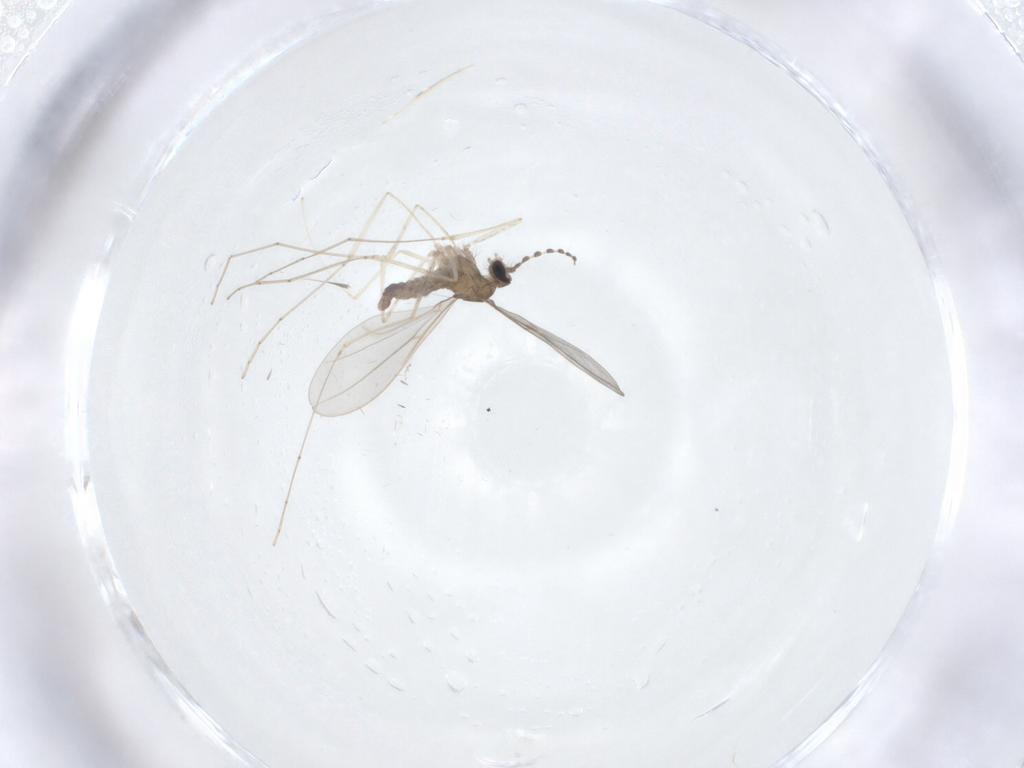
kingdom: Animalia
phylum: Arthropoda
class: Insecta
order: Diptera
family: Cecidomyiidae
